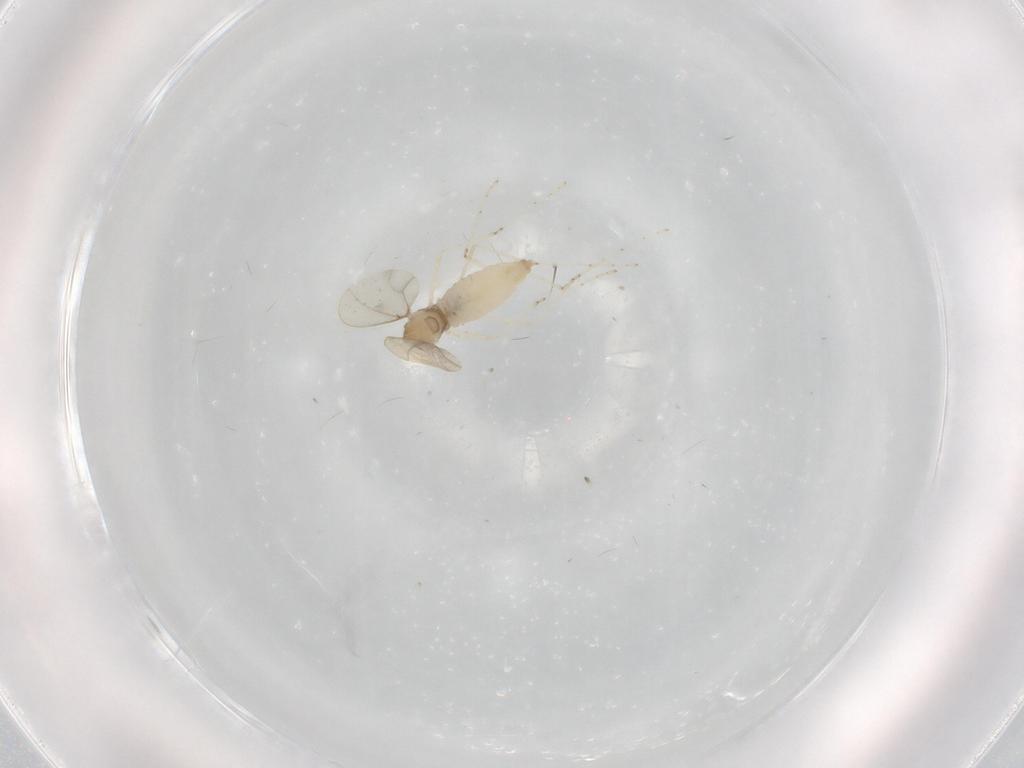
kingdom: Animalia
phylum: Arthropoda
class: Insecta
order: Diptera
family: Cecidomyiidae
